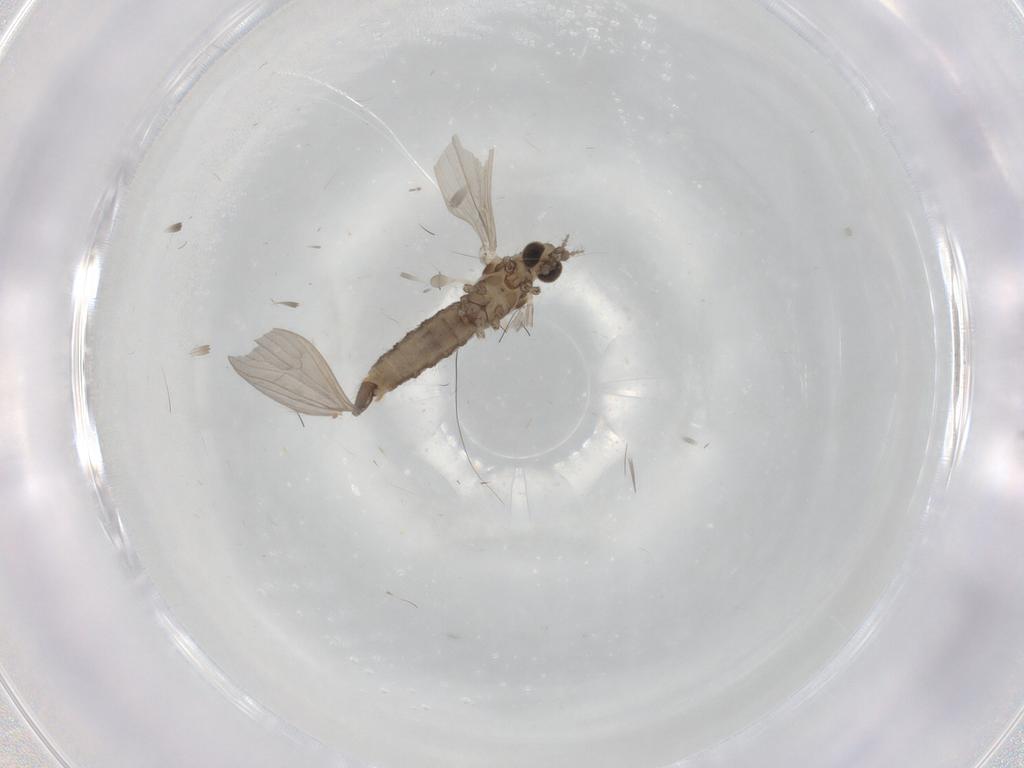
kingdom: Animalia
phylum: Arthropoda
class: Insecta
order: Diptera
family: Limoniidae
